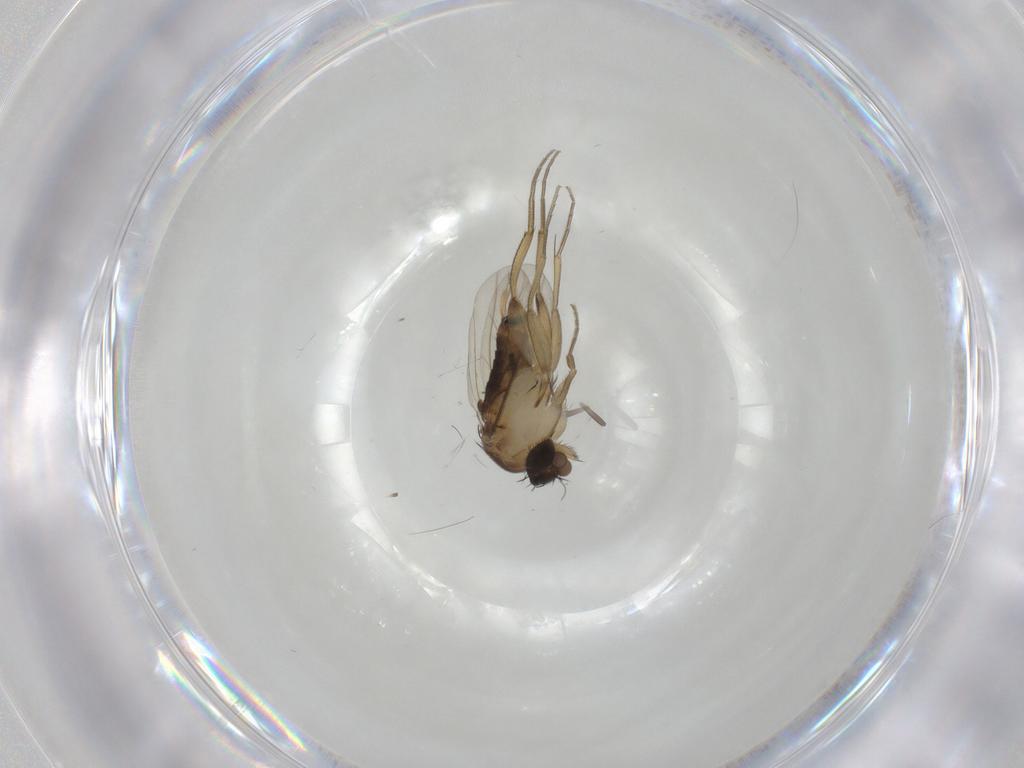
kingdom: Animalia
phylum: Arthropoda
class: Insecta
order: Diptera
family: Phoridae
